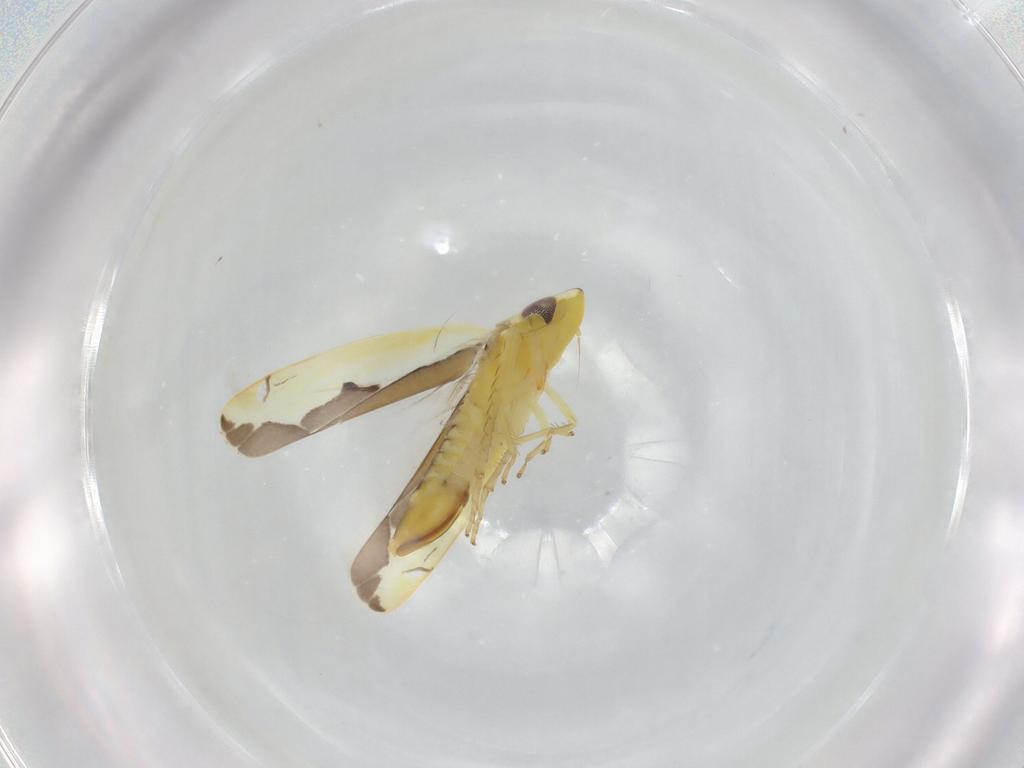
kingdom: Animalia
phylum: Arthropoda
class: Insecta
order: Hemiptera
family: Cicadellidae
